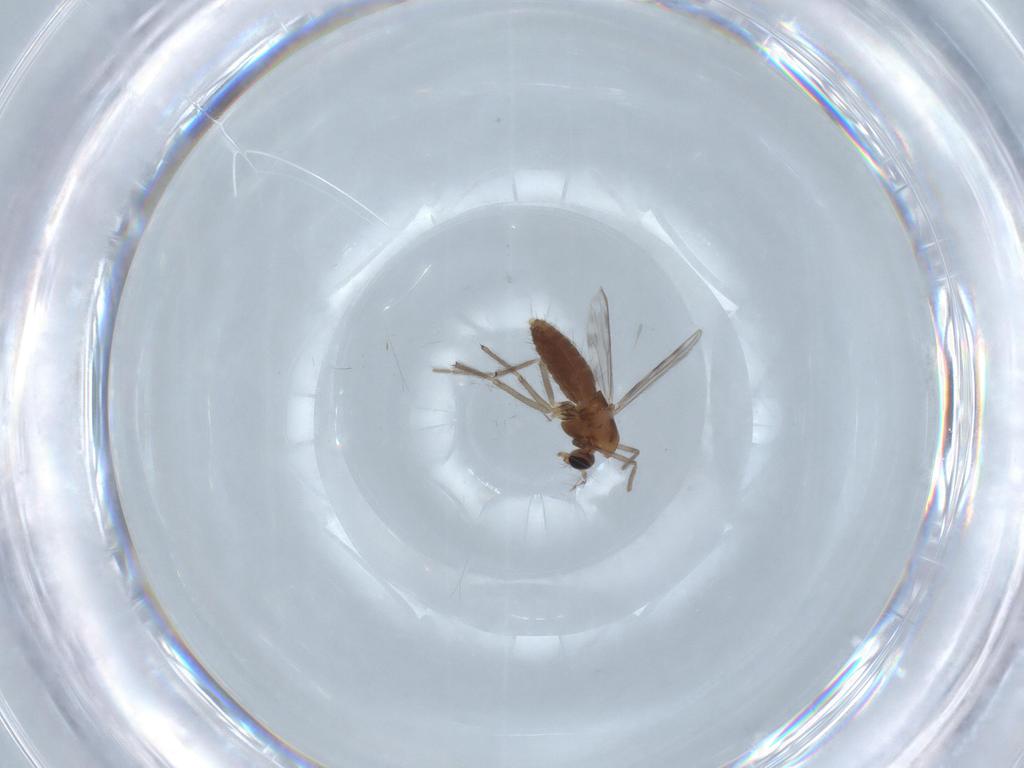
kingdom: Animalia
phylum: Arthropoda
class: Insecta
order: Diptera
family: Chironomidae
